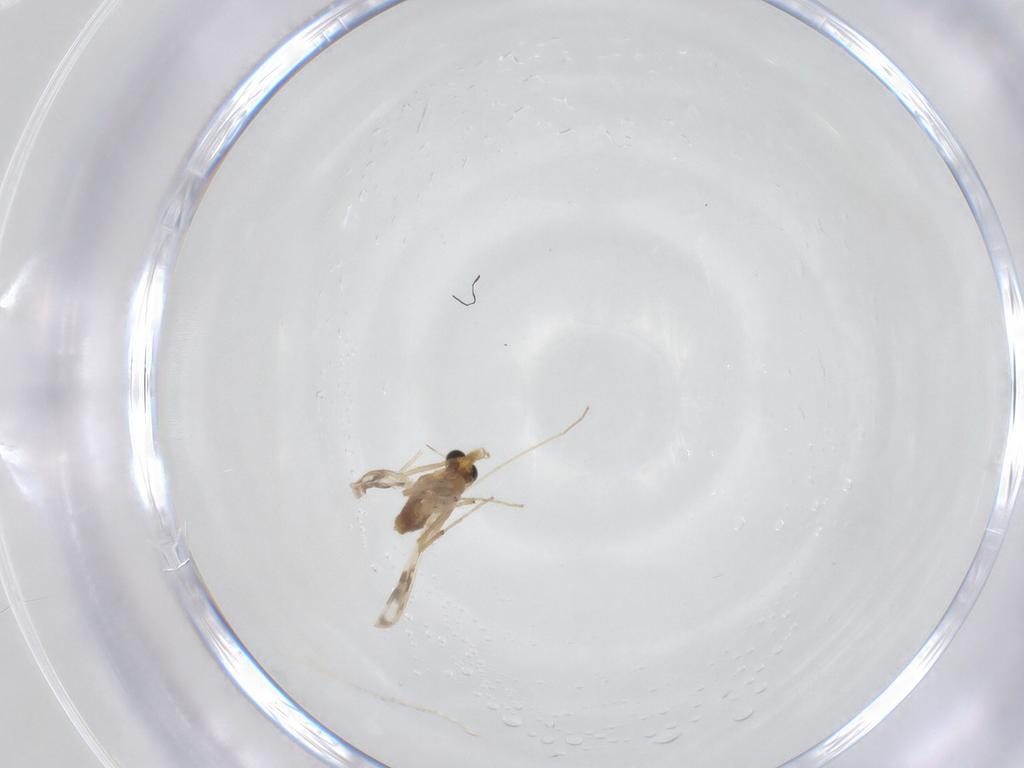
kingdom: Animalia
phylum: Arthropoda
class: Insecta
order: Diptera
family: Chironomidae
